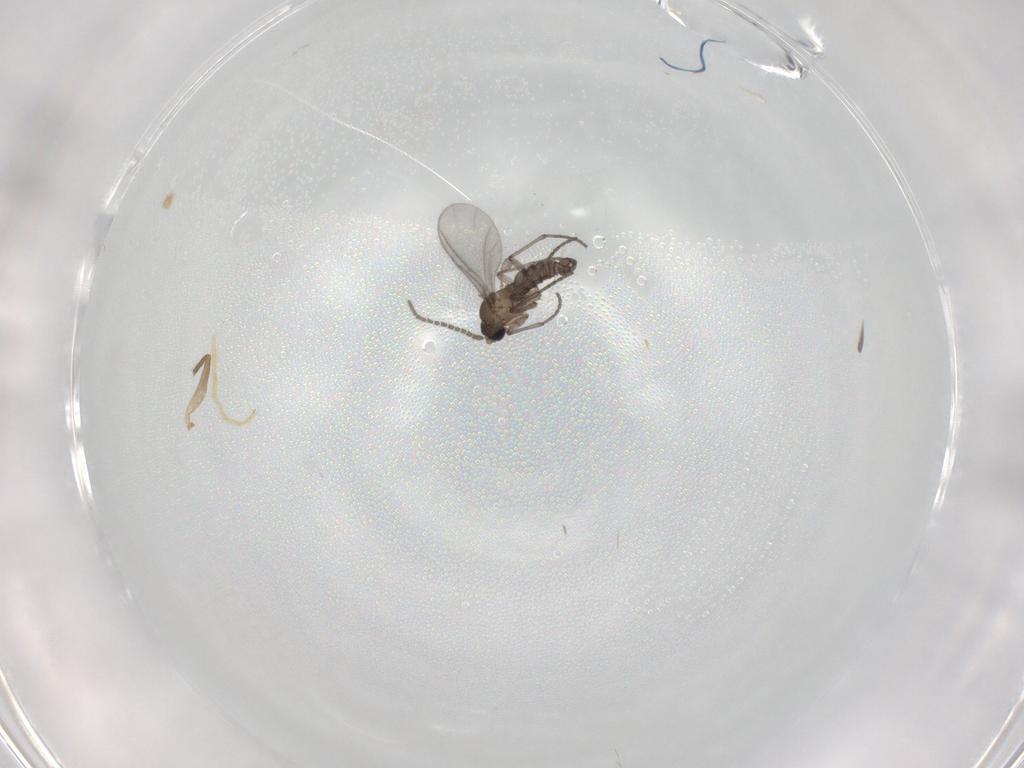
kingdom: Animalia
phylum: Arthropoda
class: Insecta
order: Diptera
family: Sciaridae
